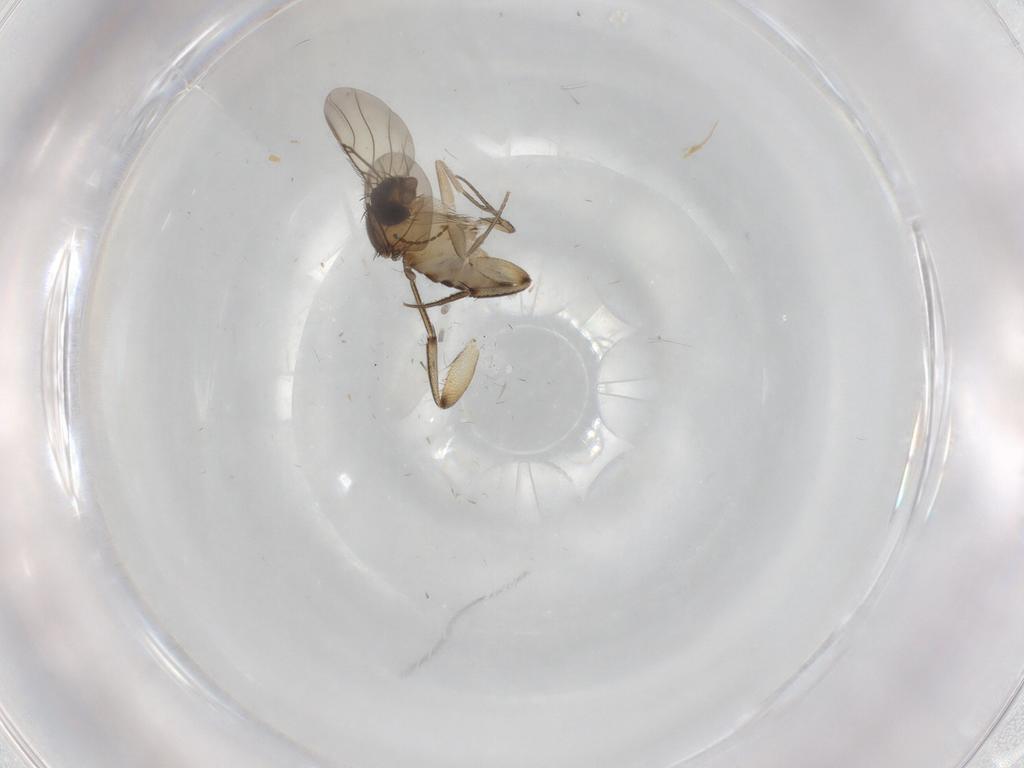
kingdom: Animalia
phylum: Arthropoda
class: Insecta
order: Diptera
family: Phoridae
